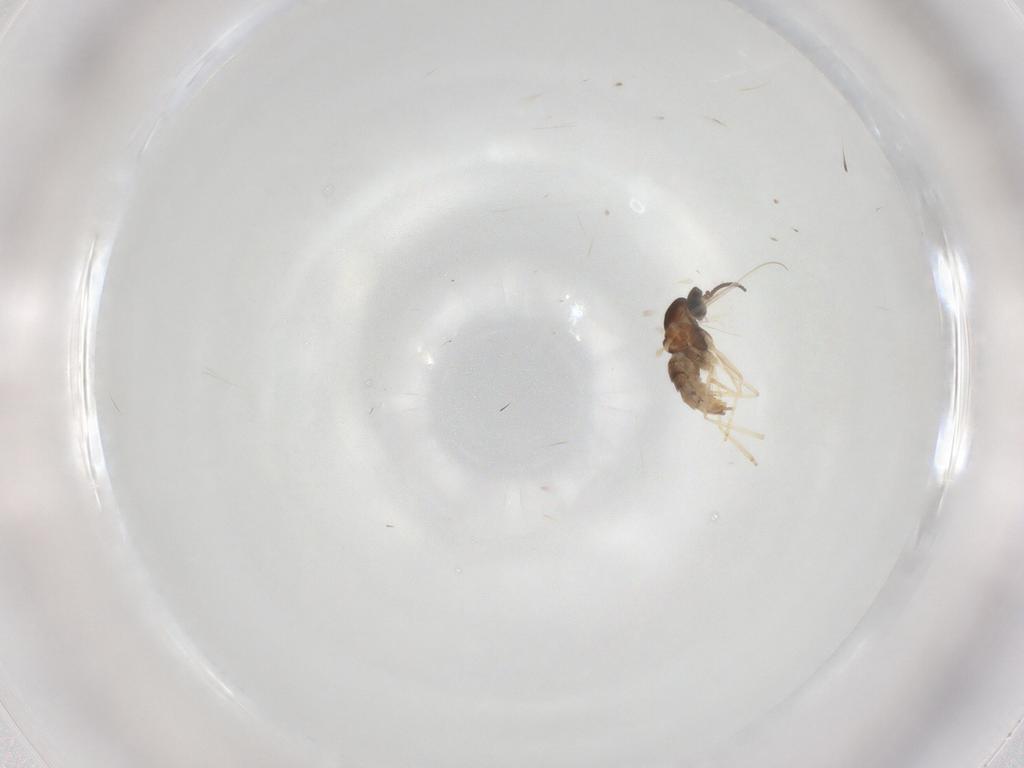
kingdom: Animalia
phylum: Arthropoda
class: Insecta
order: Diptera
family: Cecidomyiidae
